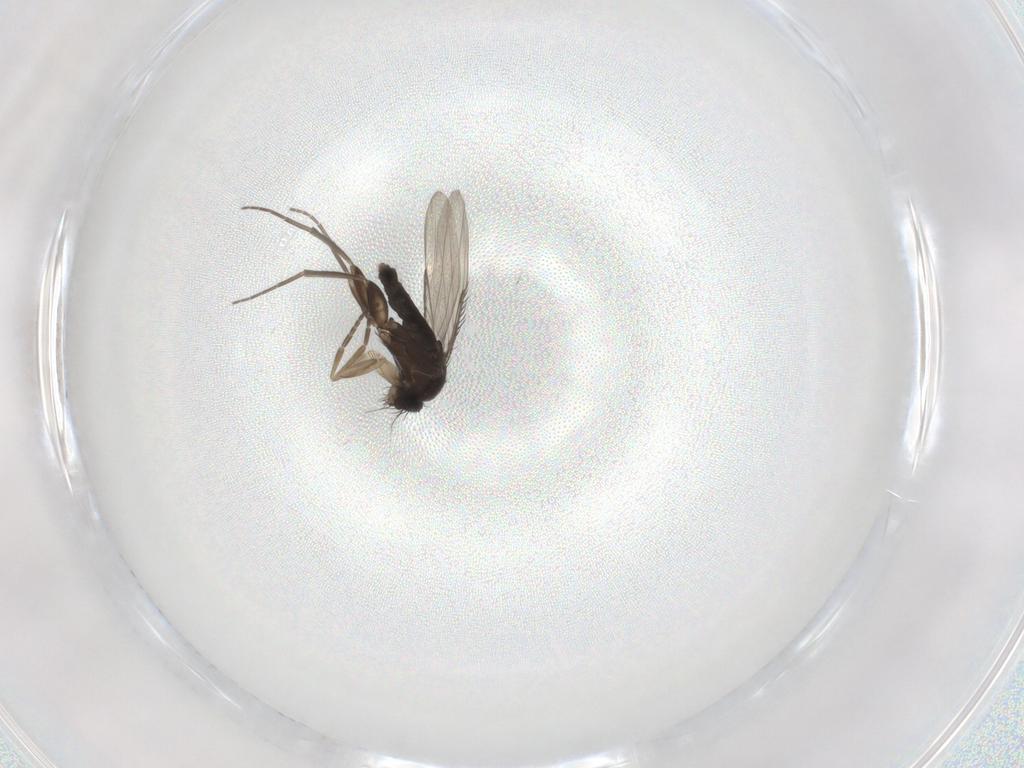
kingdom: Animalia
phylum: Arthropoda
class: Insecta
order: Diptera
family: Phoridae
